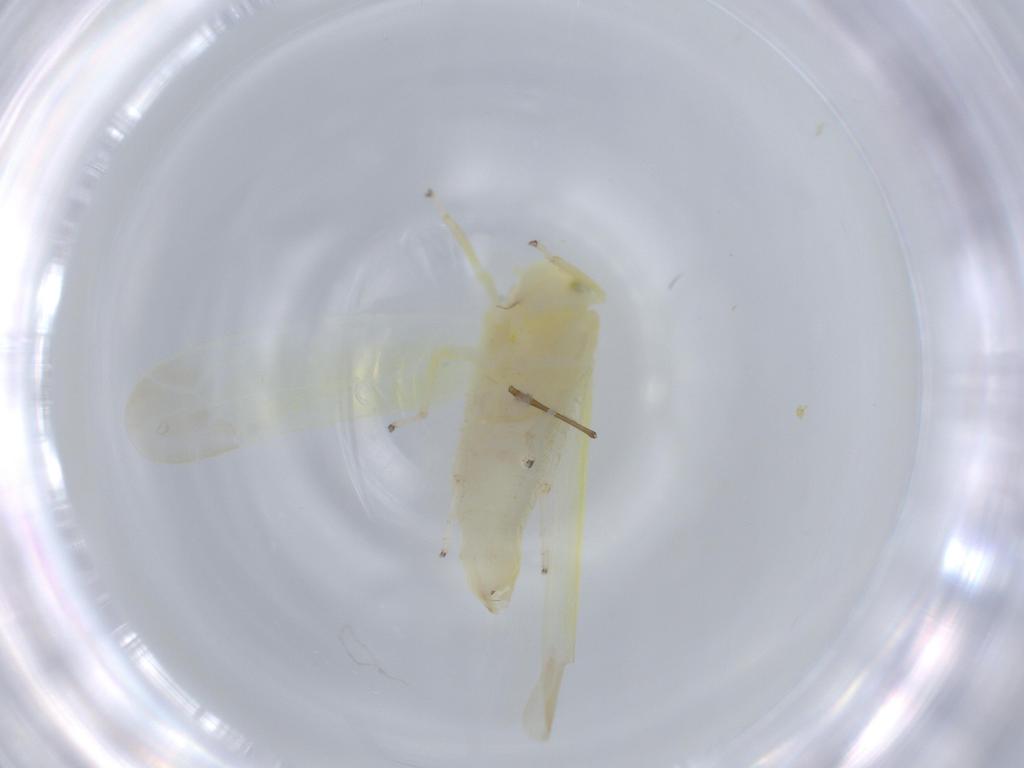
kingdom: Animalia
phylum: Arthropoda
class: Insecta
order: Hemiptera
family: Cicadellidae
